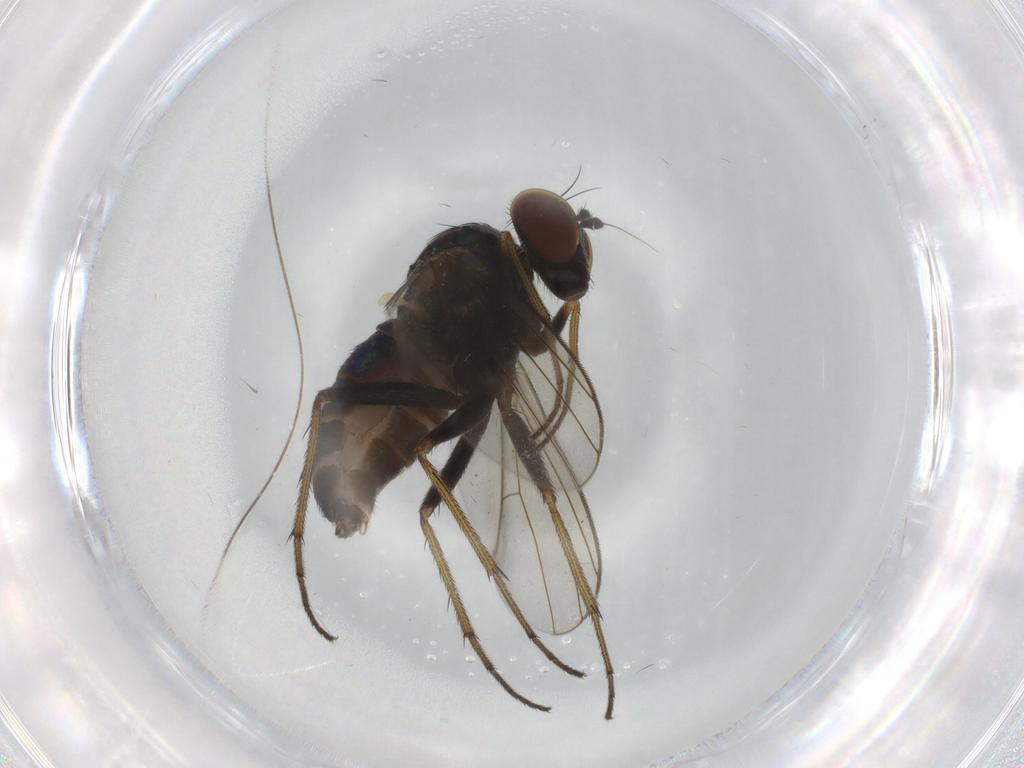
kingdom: Animalia
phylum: Arthropoda
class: Insecta
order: Diptera
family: Dolichopodidae
